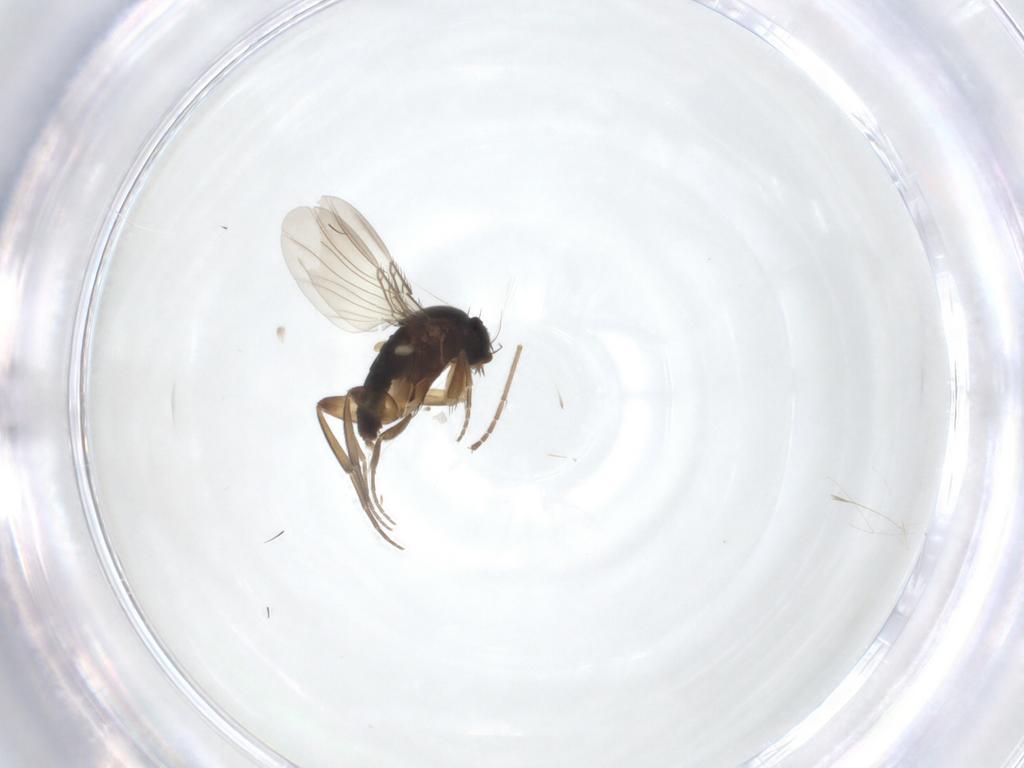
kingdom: Animalia
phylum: Arthropoda
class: Insecta
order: Diptera
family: Phoridae
